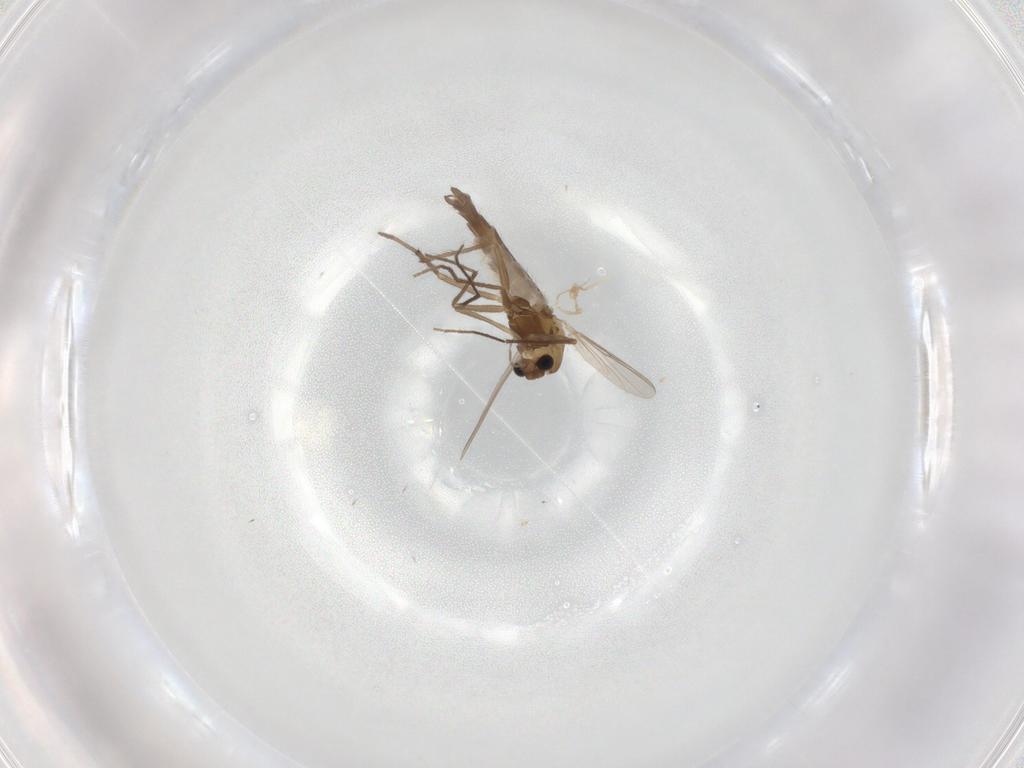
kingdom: Animalia
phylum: Arthropoda
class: Insecta
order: Diptera
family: Chironomidae
